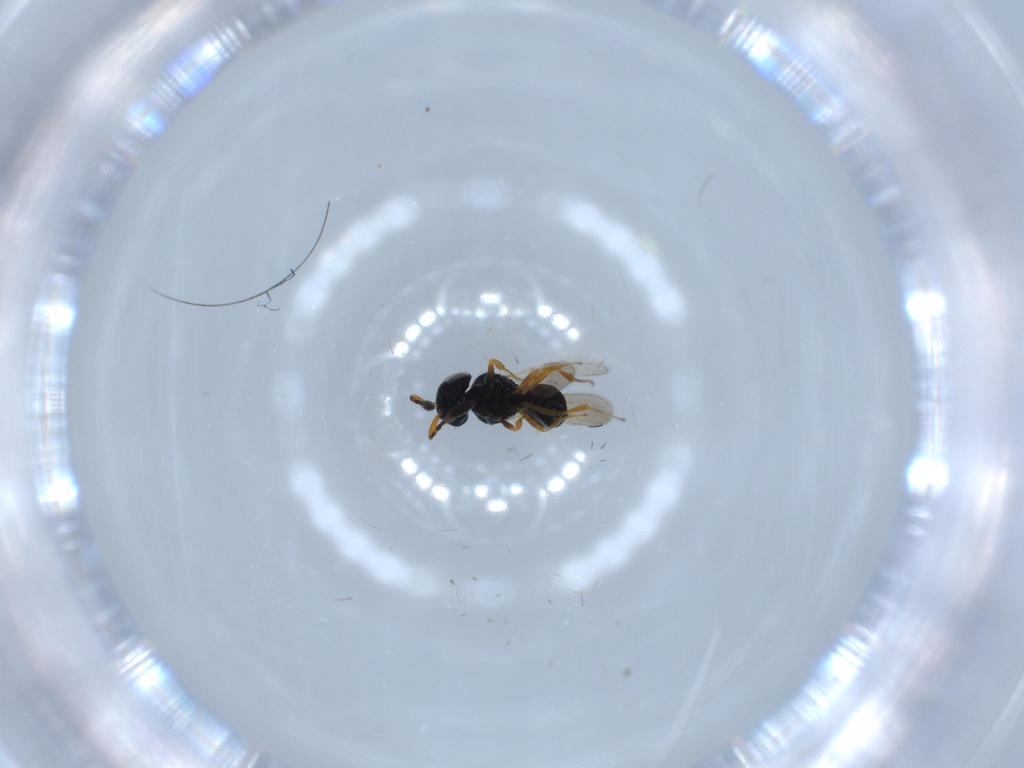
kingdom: Animalia
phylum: Arthropoda
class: Insecta
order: Hymenoptera
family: Scelionidae
